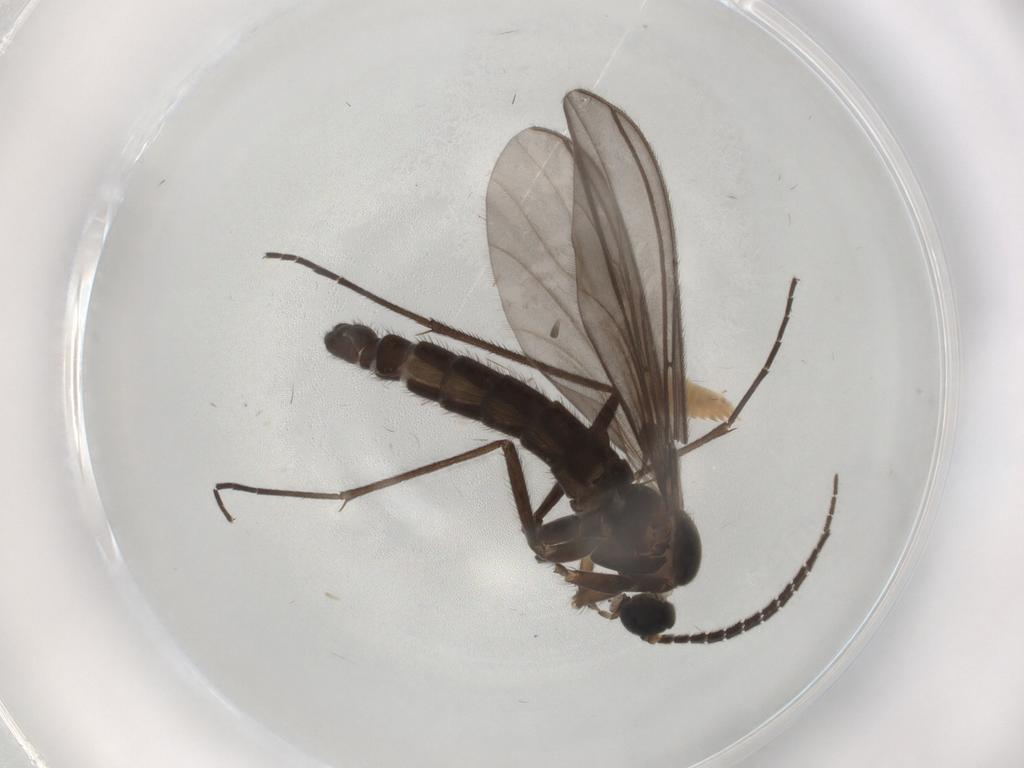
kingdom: Animalia
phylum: Arthropoda
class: Insecta
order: Diptera
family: Sciaridae
